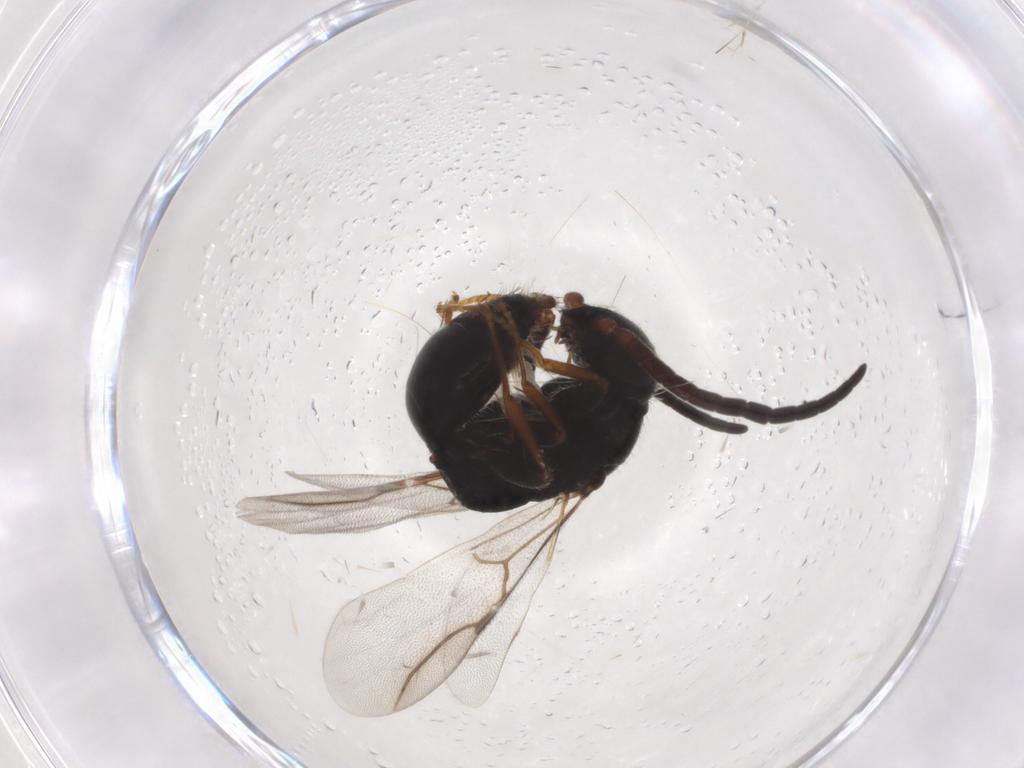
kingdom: Animalia
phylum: Arthropoda
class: Insecta
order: Hymenoptera
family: Bethylidae
